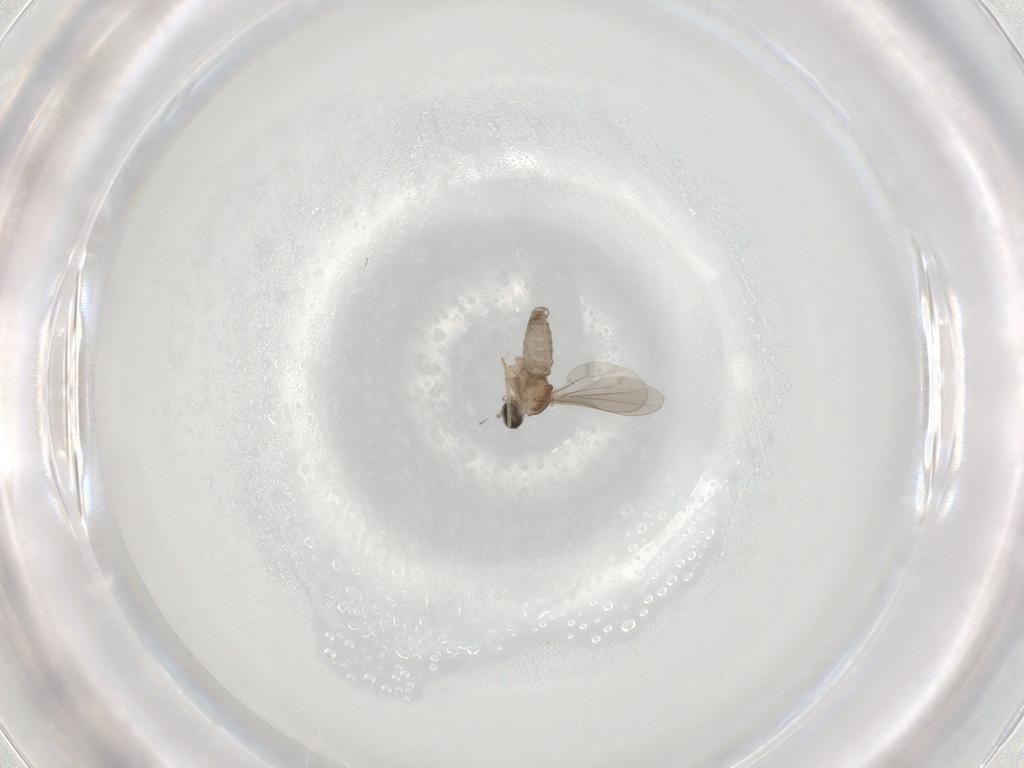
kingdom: Animalia
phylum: Arthropoda
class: Insecta
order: Diptera
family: Cecidomyiidae
